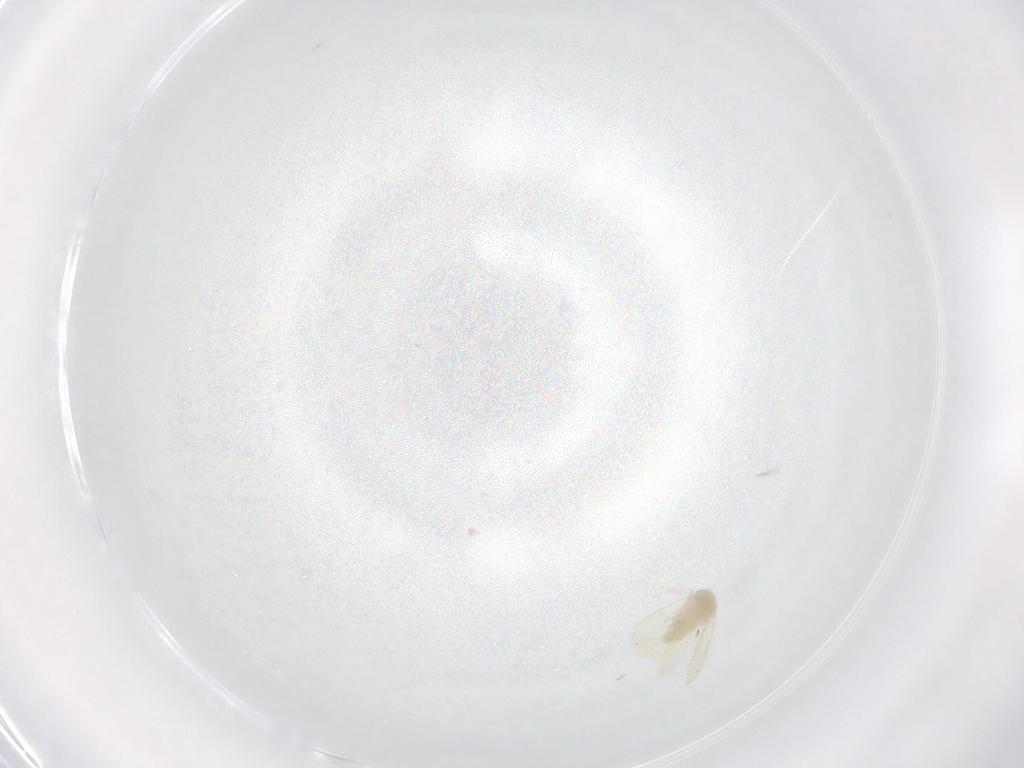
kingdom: Animalia
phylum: Arthropoda
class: Insecta
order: Hemiptera
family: Aleyrodidae
